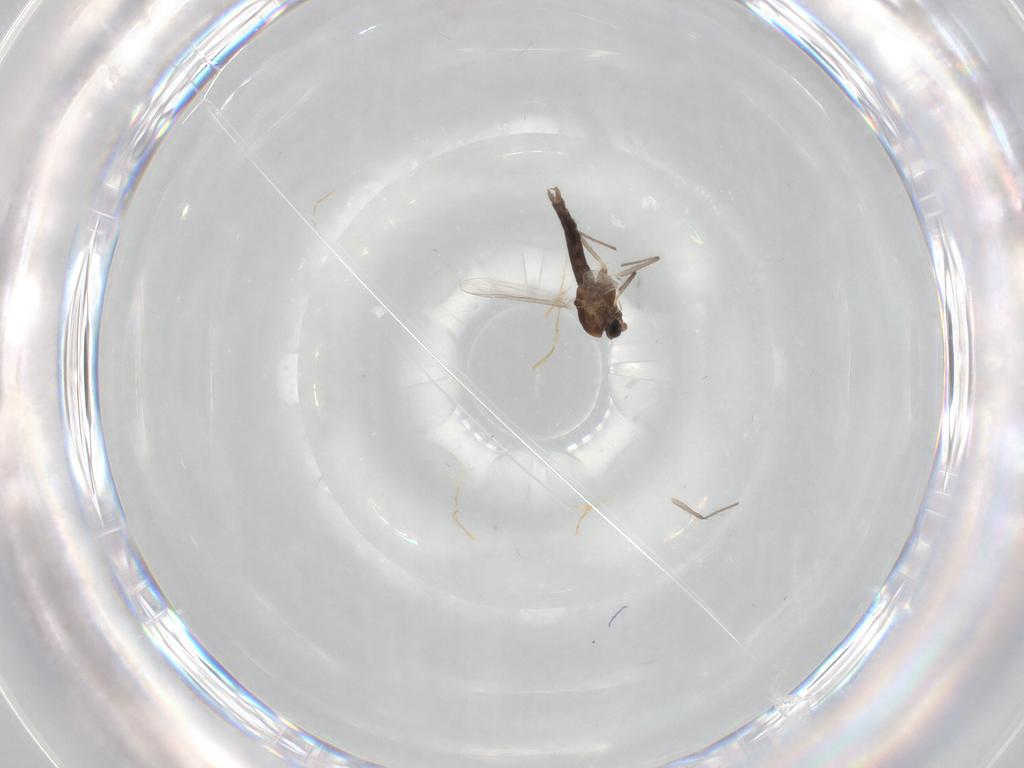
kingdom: Animalia
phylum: Arthropoda
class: Insecta
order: Diptera
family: Chironomidae
